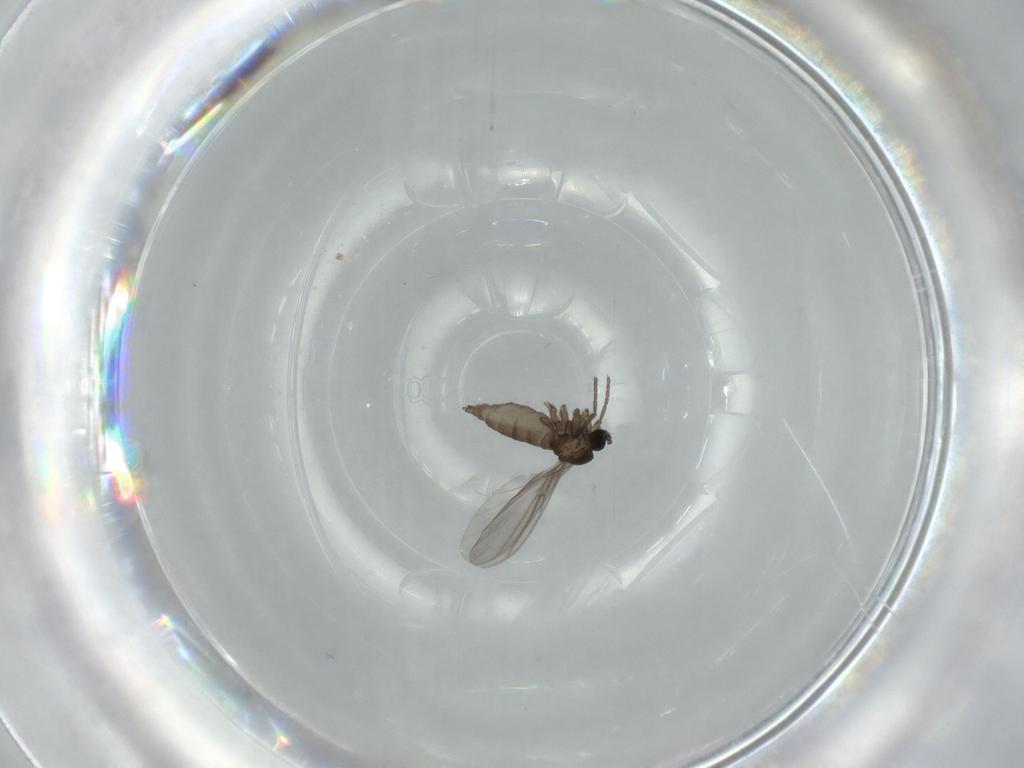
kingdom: Animalia
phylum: Arthropoda
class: Insecta
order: Diptera
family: Sciaridae
